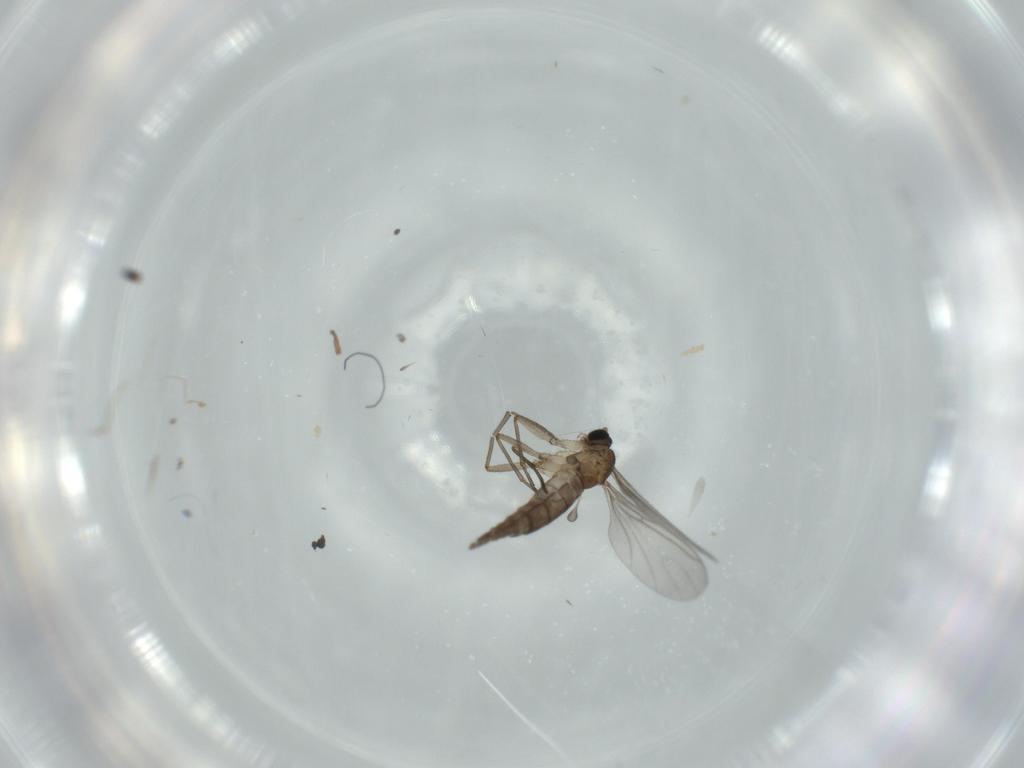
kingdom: Animalia
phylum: Arthropoda
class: Insecta
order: Diptera
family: Sciaridae
